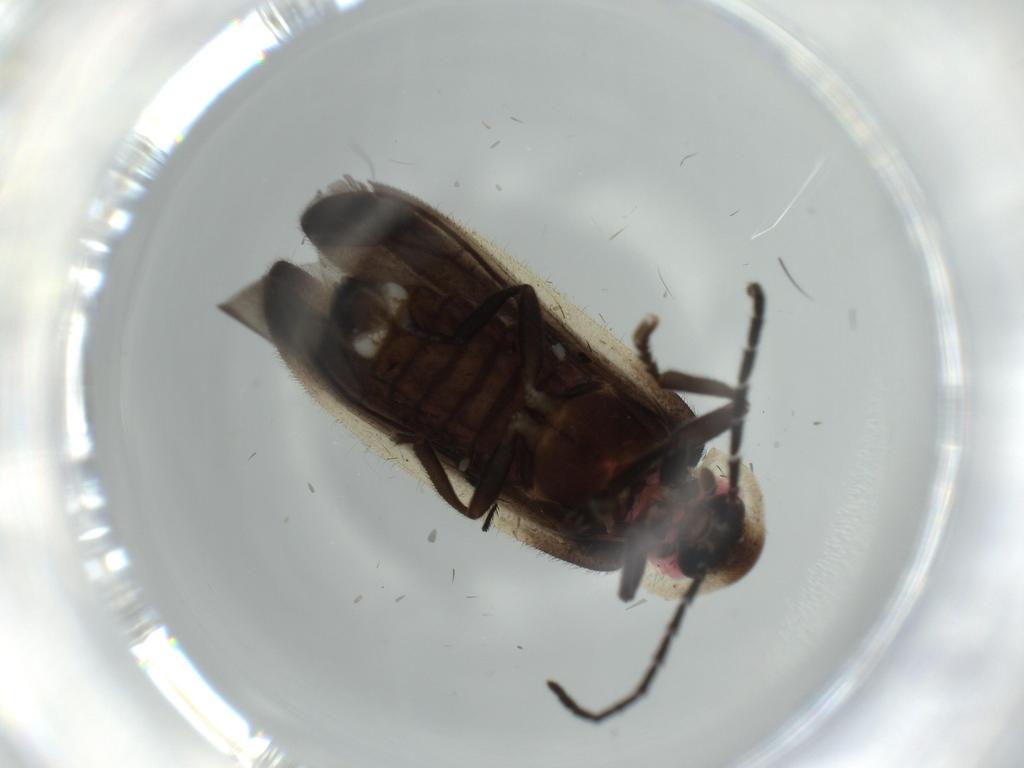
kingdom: Animalia
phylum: Arthropoda
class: Insecta
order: Coleoptera
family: Lampyridae
